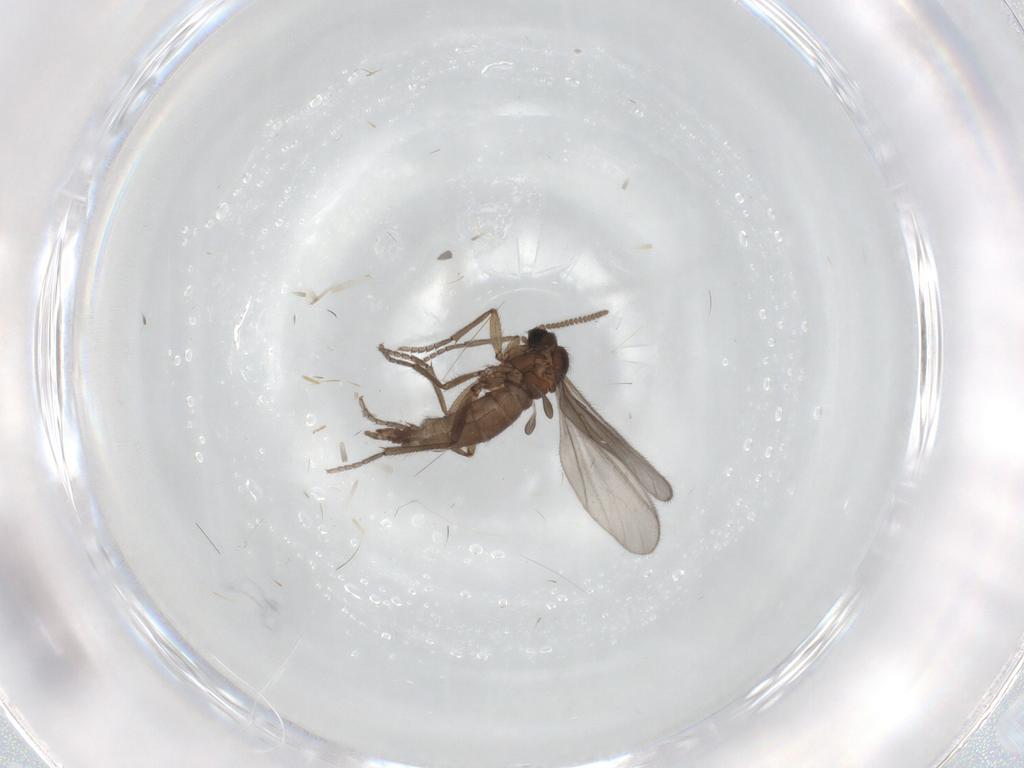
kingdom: Animalia
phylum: Arthropoda
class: Insecta
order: Diptera
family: Sciaridae
